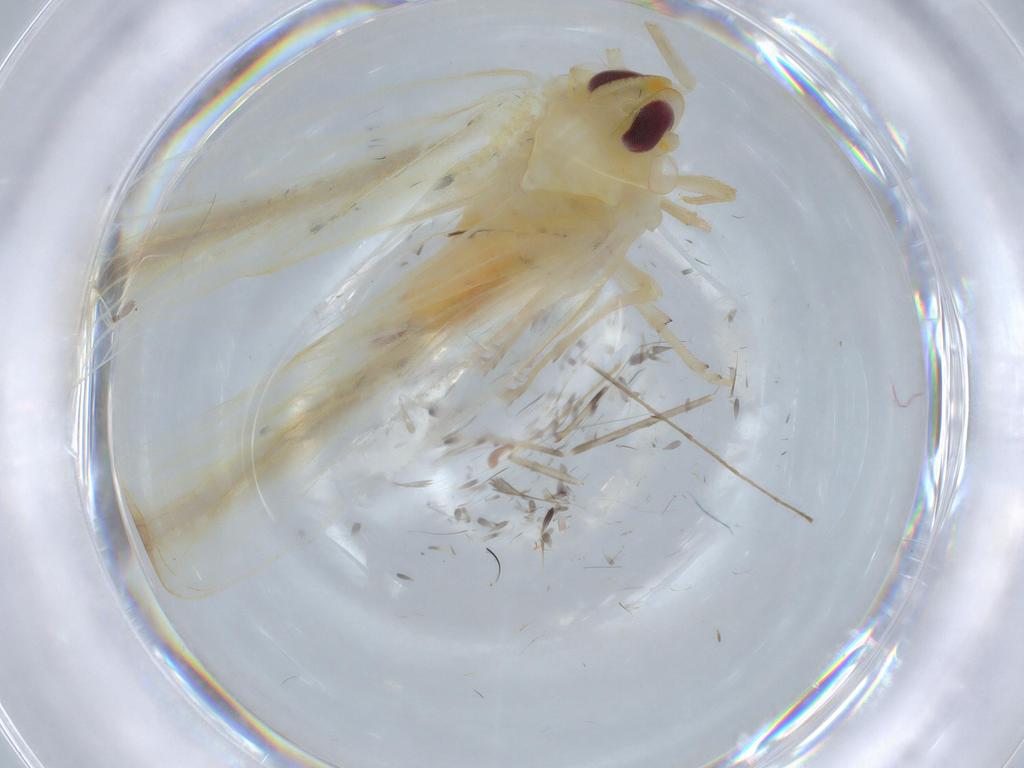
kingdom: Animalia
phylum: Arthropoda
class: Insecta
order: Hemiptera
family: Derbidae
